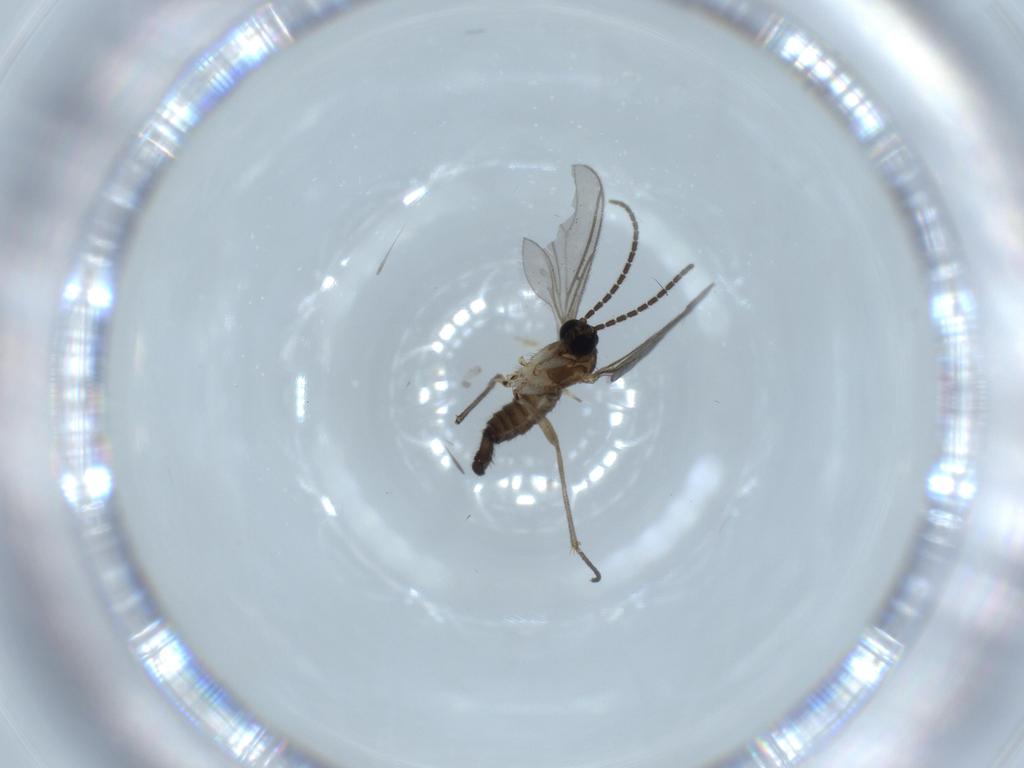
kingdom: Animalia
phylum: Arthropoda
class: Insecta
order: Diptera
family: Sciaridae
